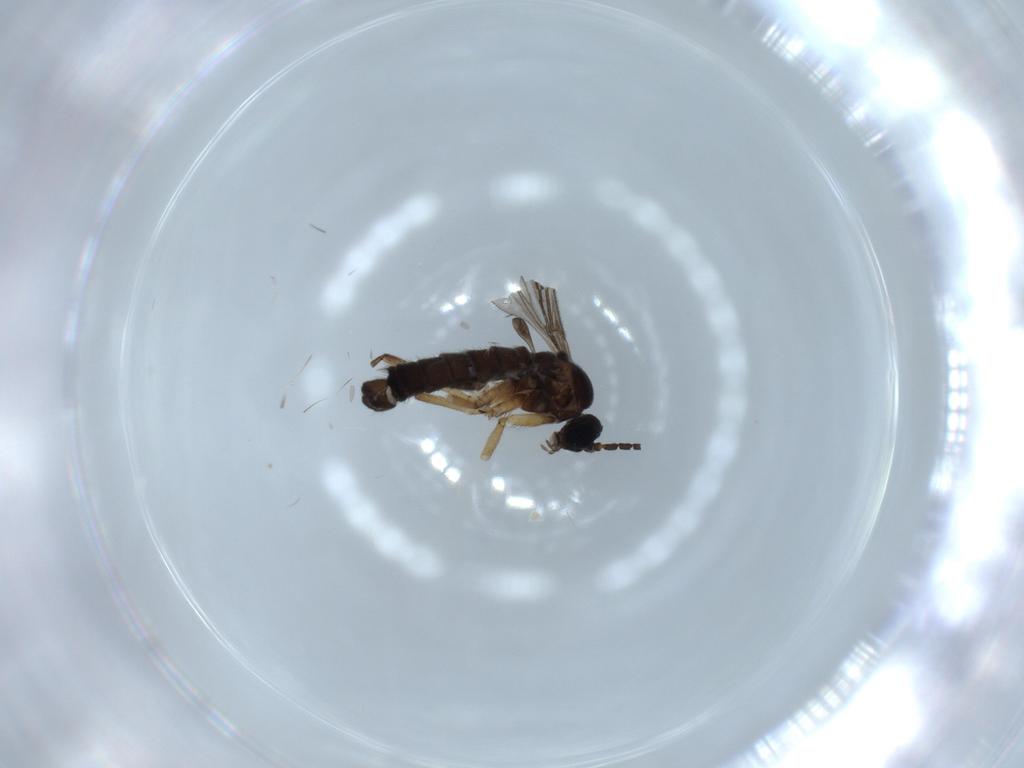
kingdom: Animalia
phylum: Arthropoda
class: Insecta
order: Diptera
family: Sciaridae
